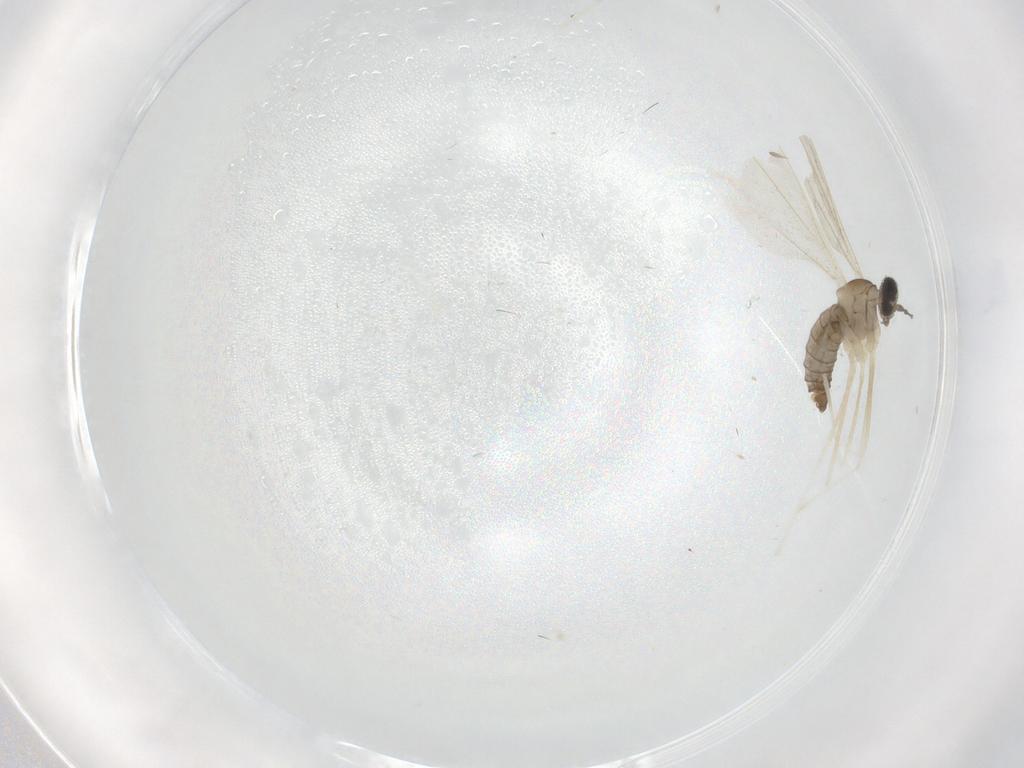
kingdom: Animalia
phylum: Arthropoda
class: Insecta
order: Diptera
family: Cecidomyiidae
